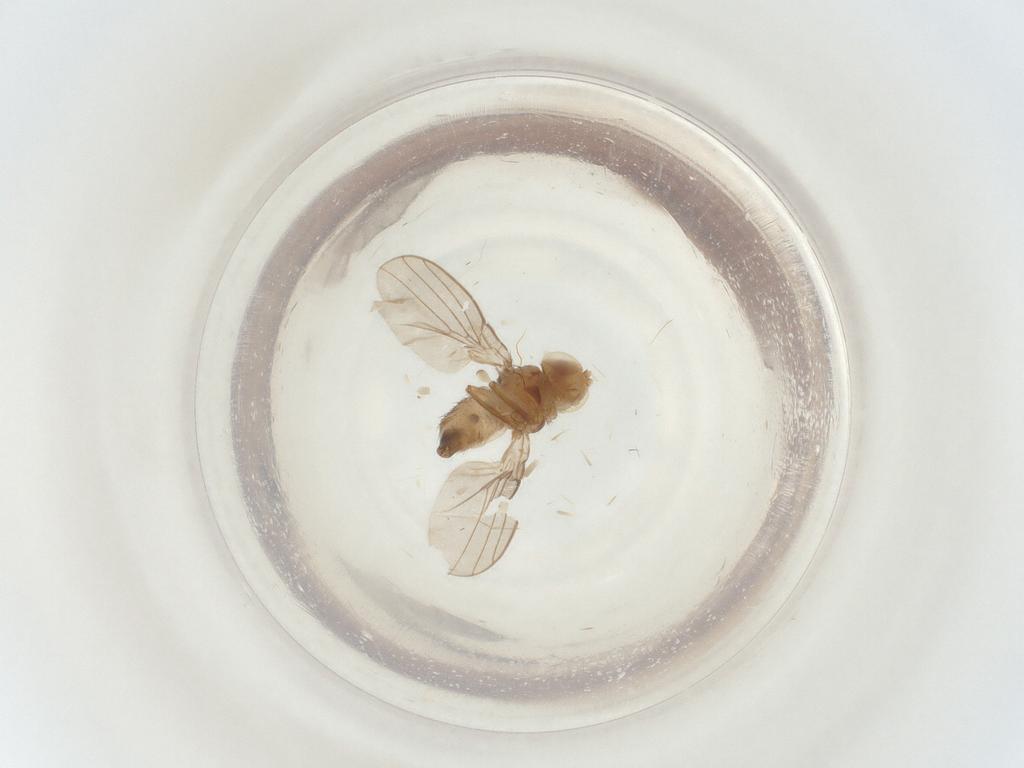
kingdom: Animalia
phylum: Arthropoda
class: Insecta
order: Diptera
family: Agromyzidae
